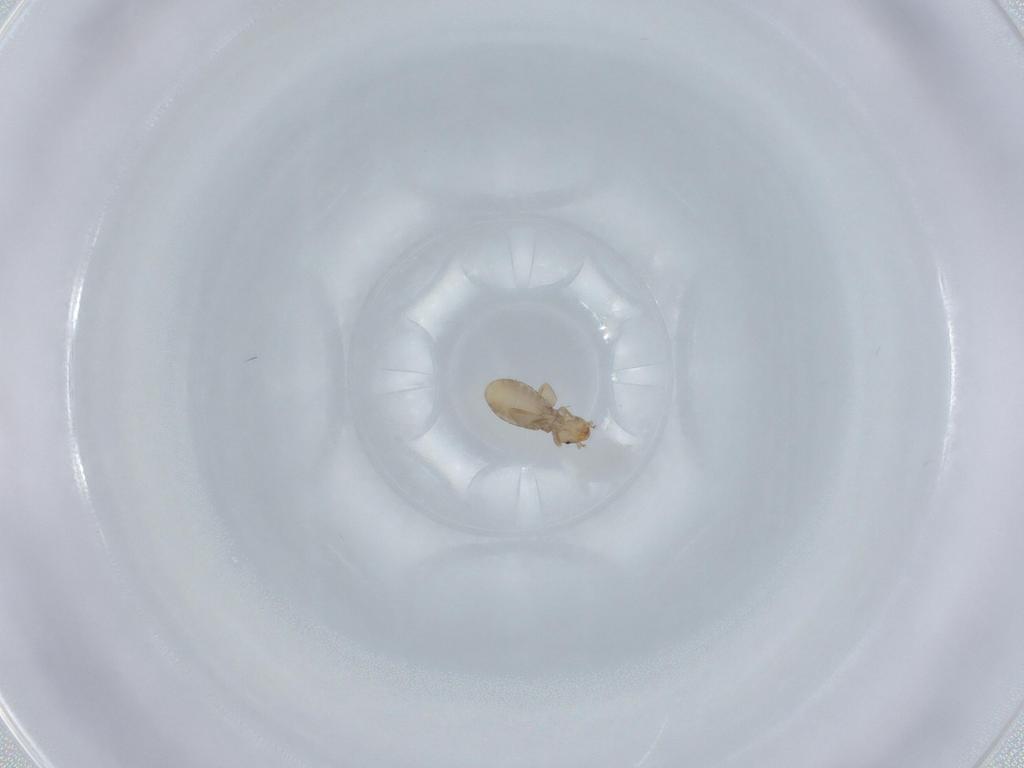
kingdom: Animalia
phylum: Arthropoda
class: Insecta
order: Psocodea
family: Liposcelididae
